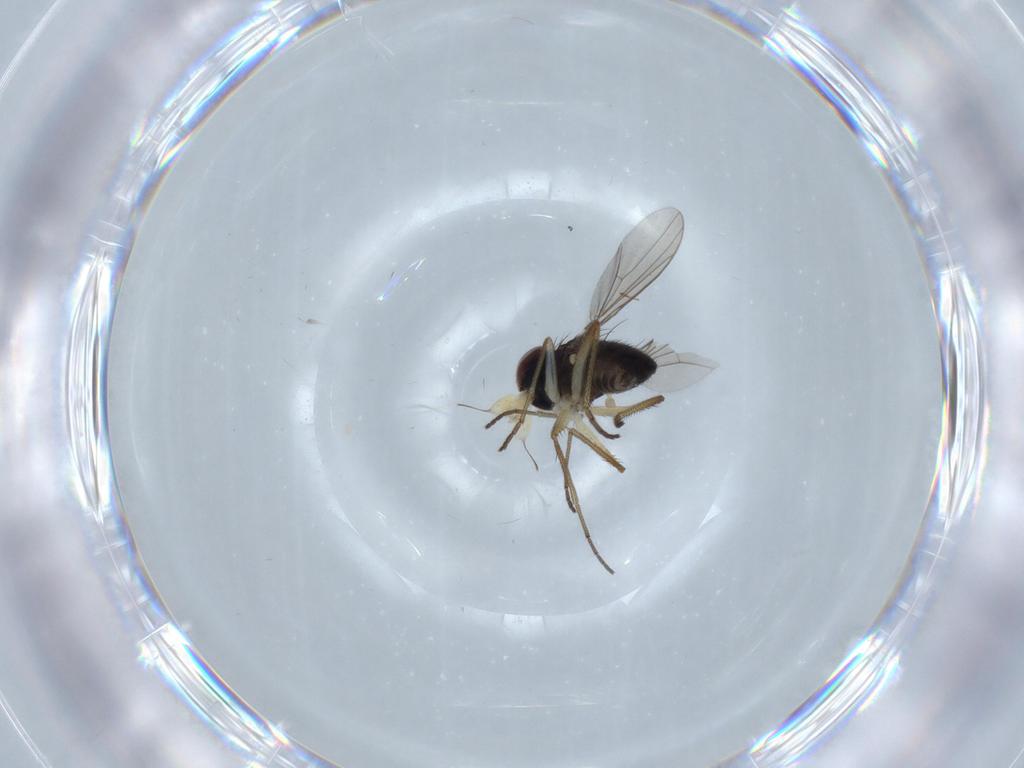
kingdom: Animalia
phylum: Arthropoda
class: Insecta
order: Diptera
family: Dolichopodidae
